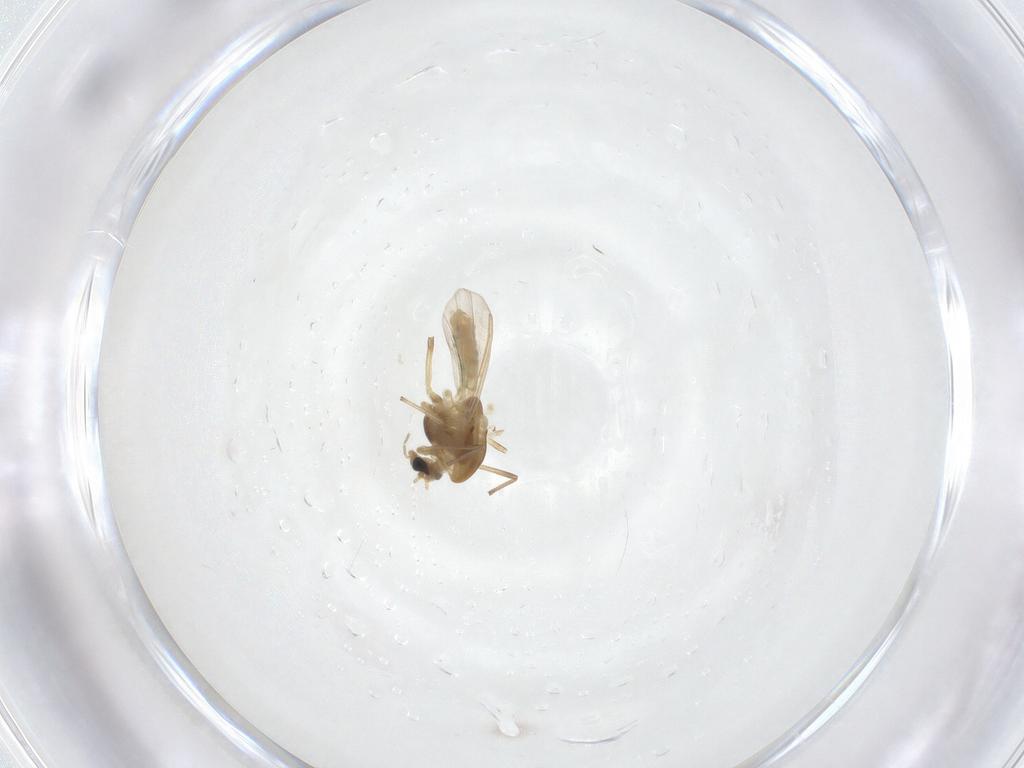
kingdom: Animalia
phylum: Arthropoda
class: Insecta
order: Diptera
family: Chironomidae
